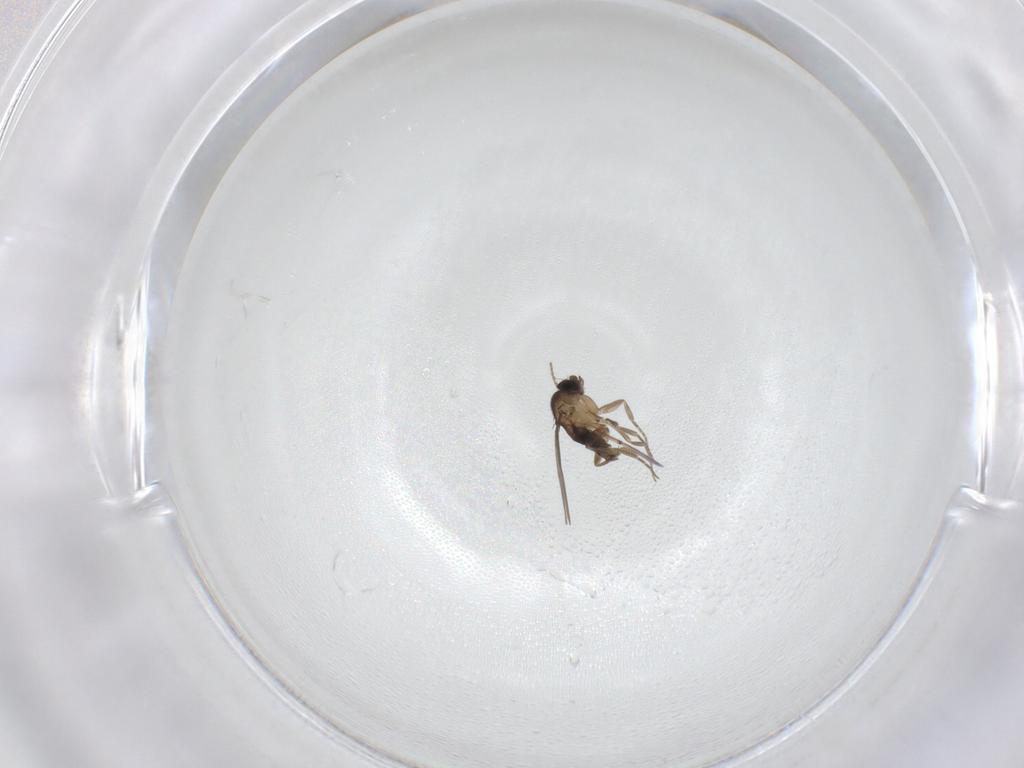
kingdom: Animalia
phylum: Arthropoda
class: Insecta
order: Diptera
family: Phoridae
